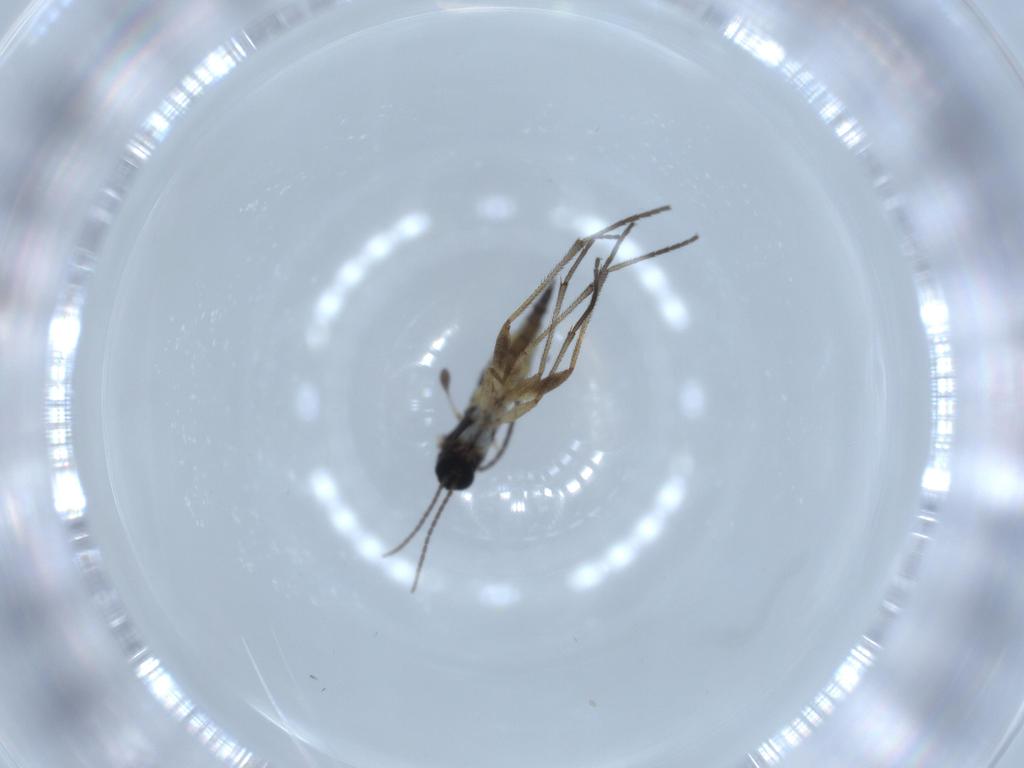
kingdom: Animalia
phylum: Arthropoda
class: Insecta
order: Diptera
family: Sciaridae
